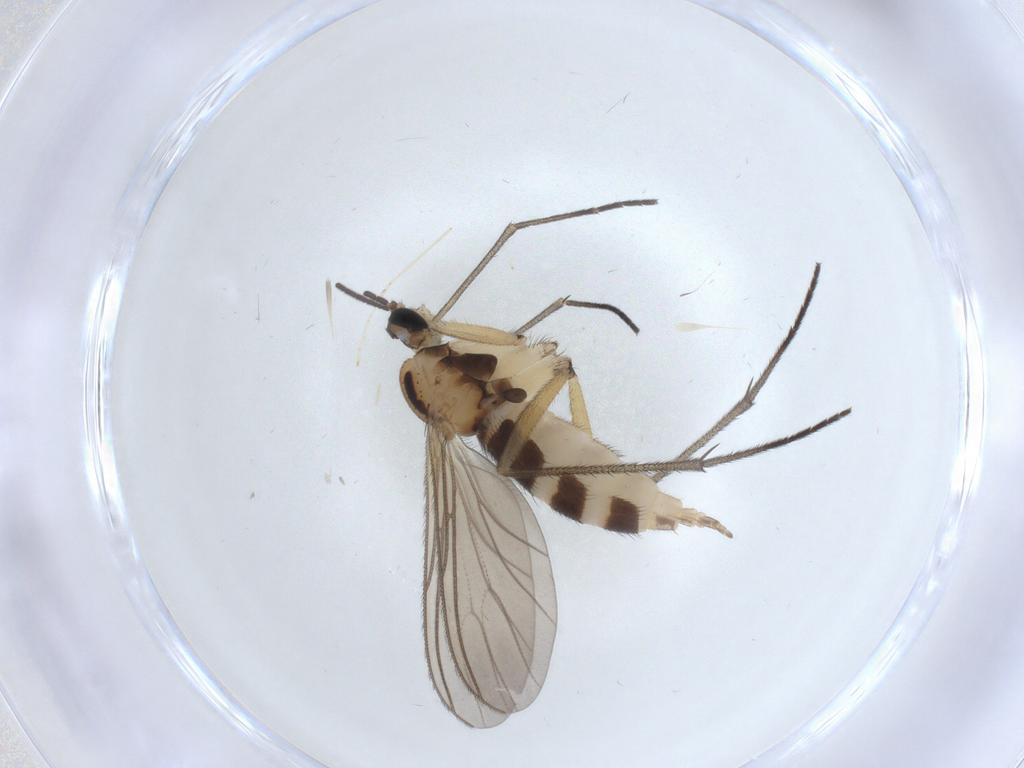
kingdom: Animalia
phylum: Arthropoda
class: Insecta
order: Diptera
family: Sciaridae
